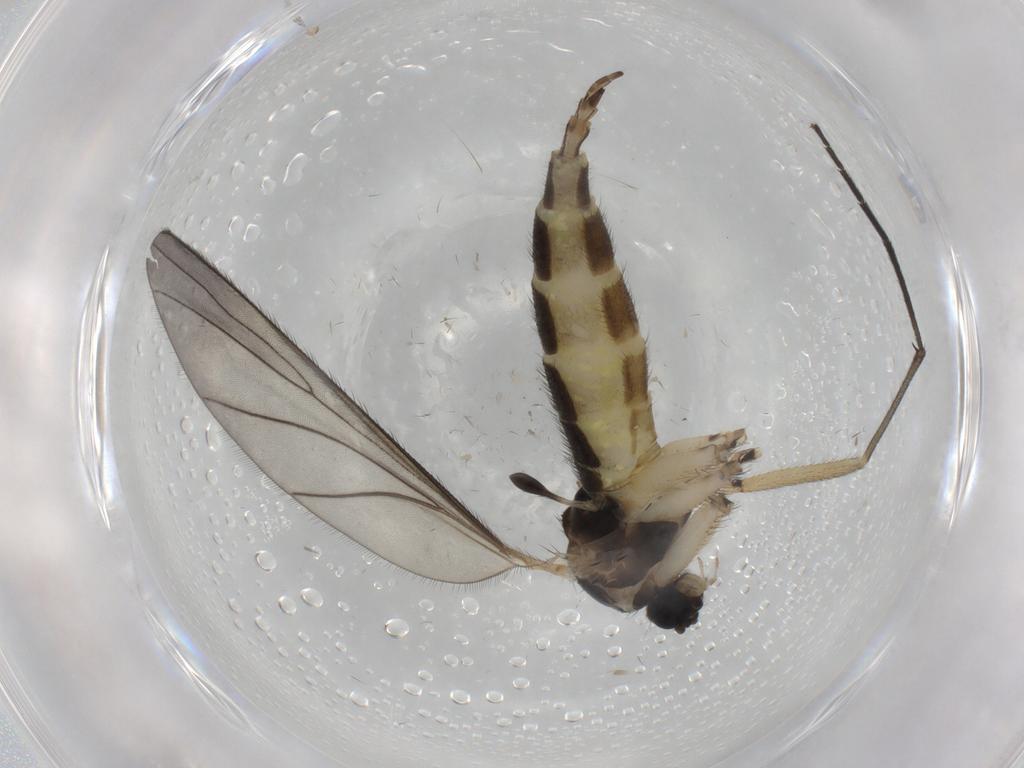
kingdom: Animalia
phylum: Arthropoda
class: Insecta
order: Diptera
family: Sciaridae
